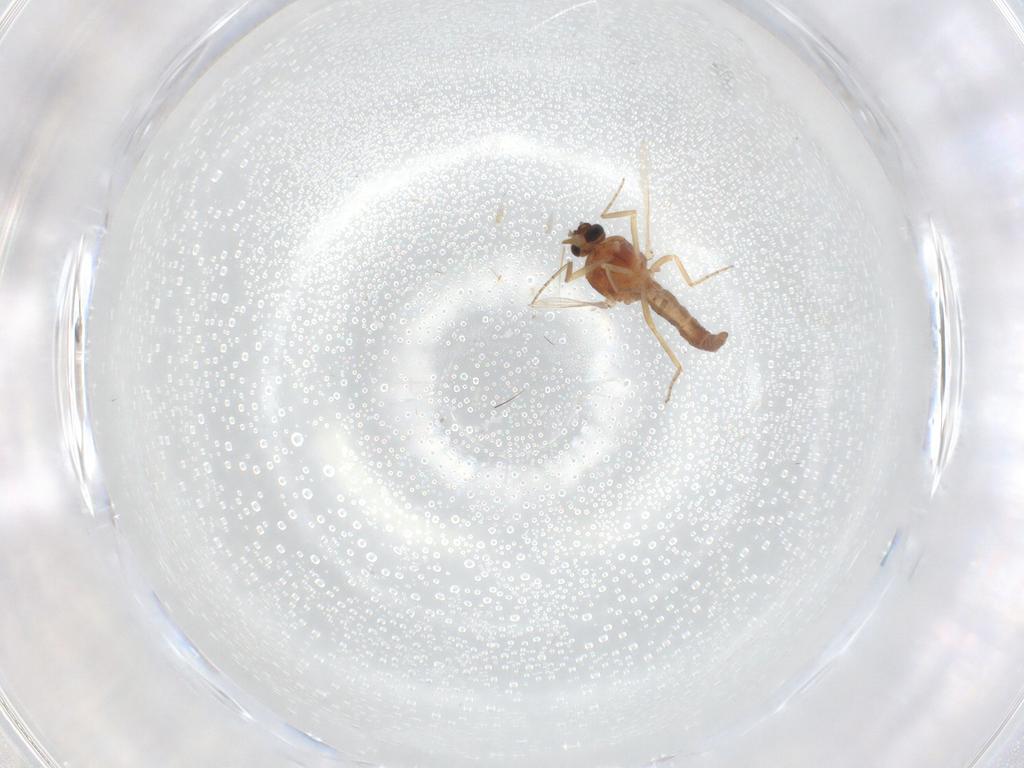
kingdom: Animalia
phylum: Arthropoda
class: Insecta
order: Diptera
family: Ceratopogonidae
